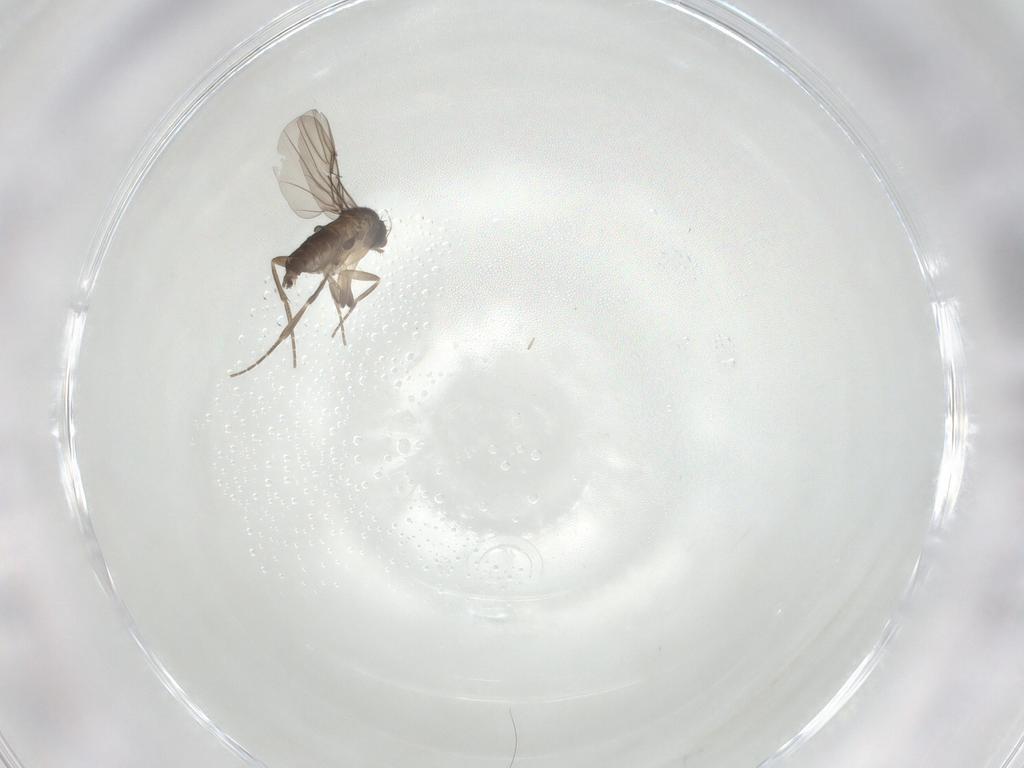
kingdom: Animalia
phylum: Arthropoda
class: Insecta
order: Diptera
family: Phoridae
